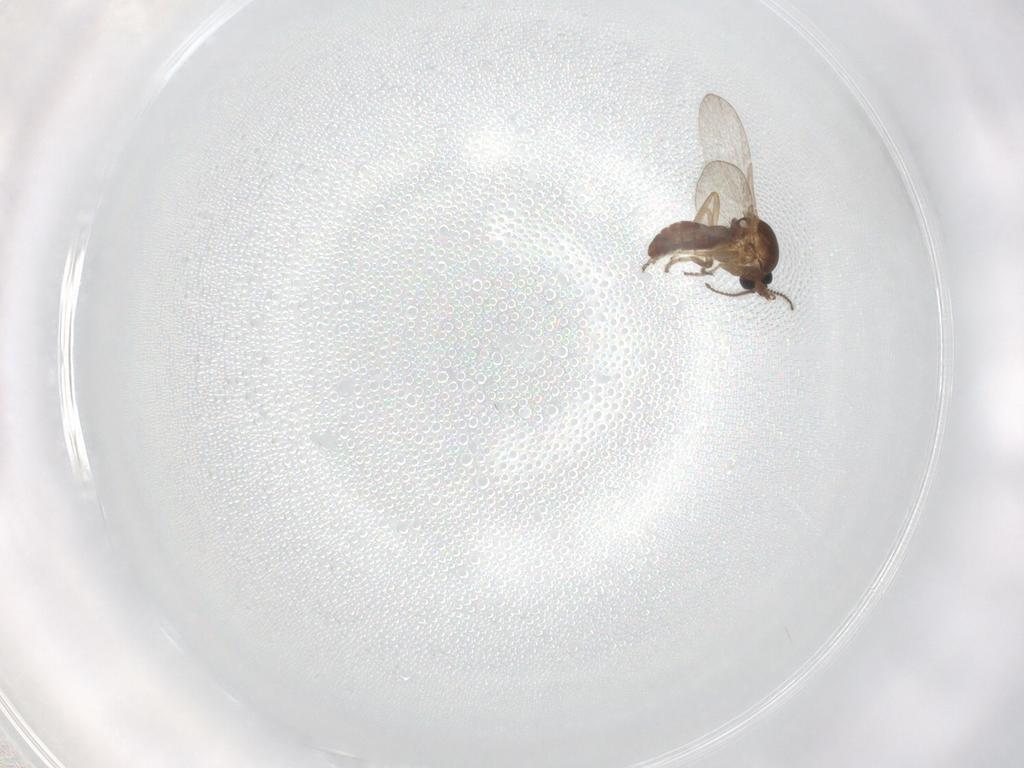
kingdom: Animalia
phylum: Arthropoda
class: Insecta
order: Diptera
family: Ceratopogonidae
